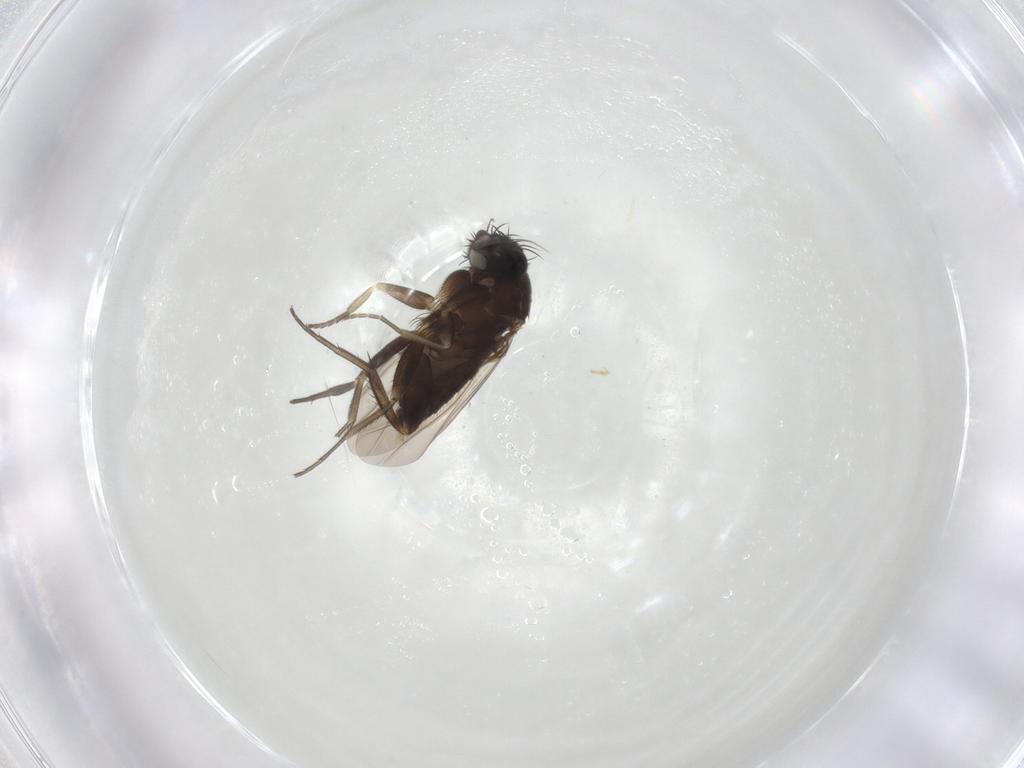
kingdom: Animalia
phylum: Arthropoda
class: Insecta
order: Diptera
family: Phoridae
